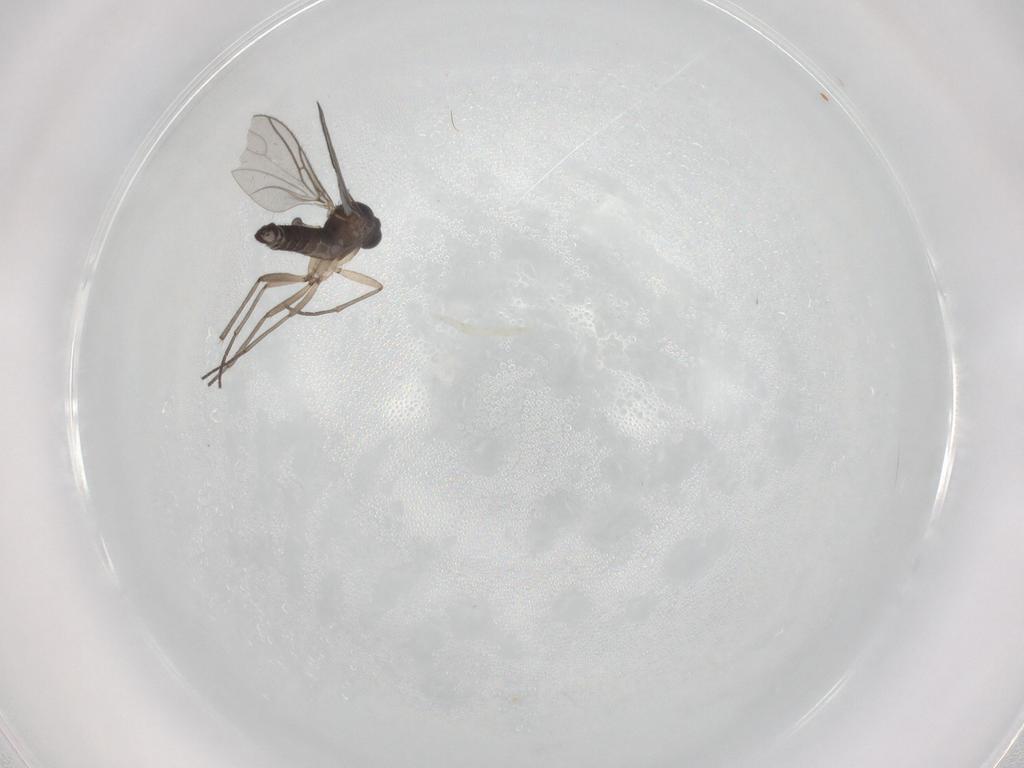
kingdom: Animalia
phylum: Arthropoda
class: Insecta
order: Diptera
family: Sciaridae
